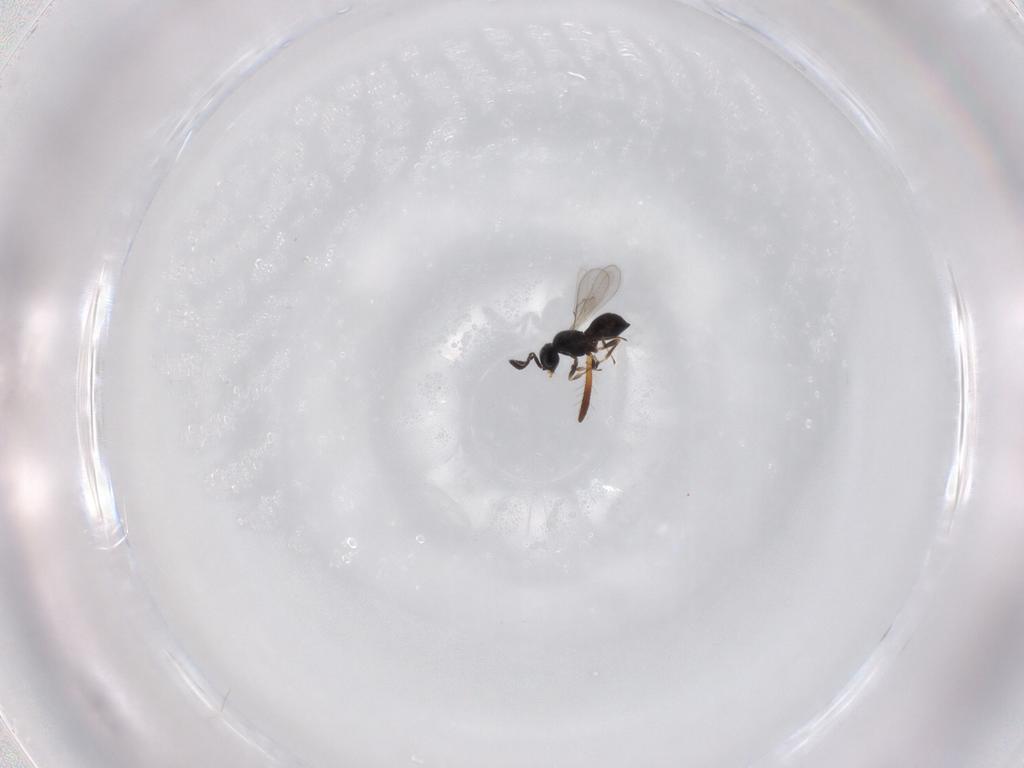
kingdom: Animalia
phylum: Arthropoda
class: Insecta
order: Hymenoptera
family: Scelionidae
